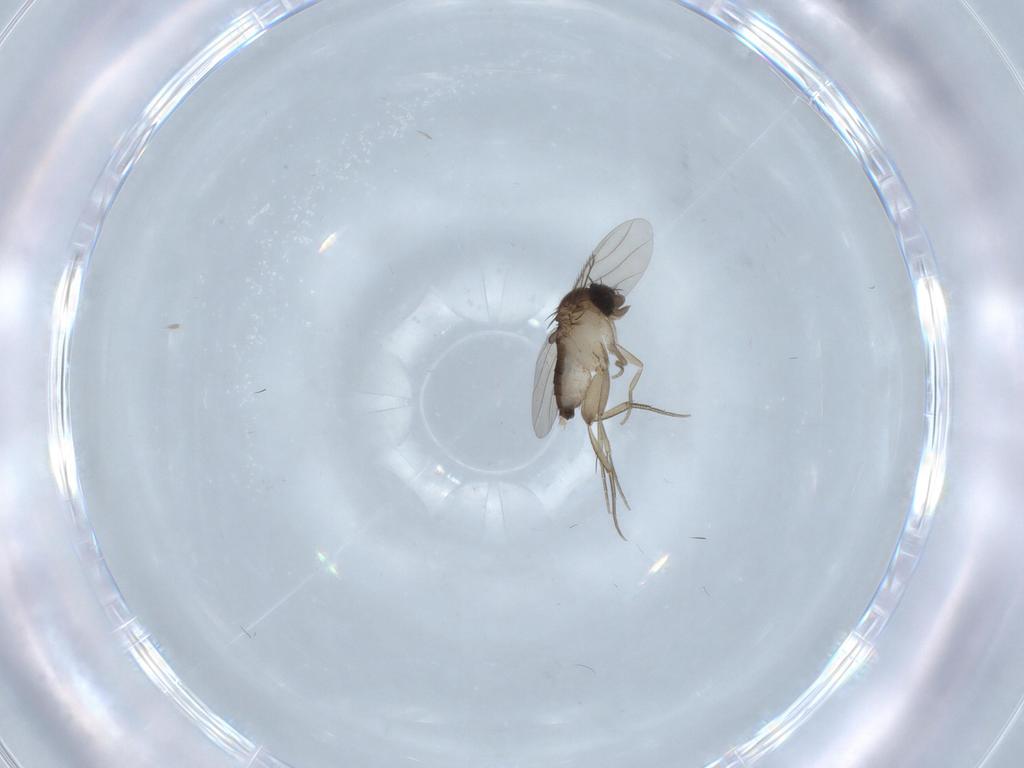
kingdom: Animalia
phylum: Arthropoda
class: Insecta
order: Diptera
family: Phoridae
